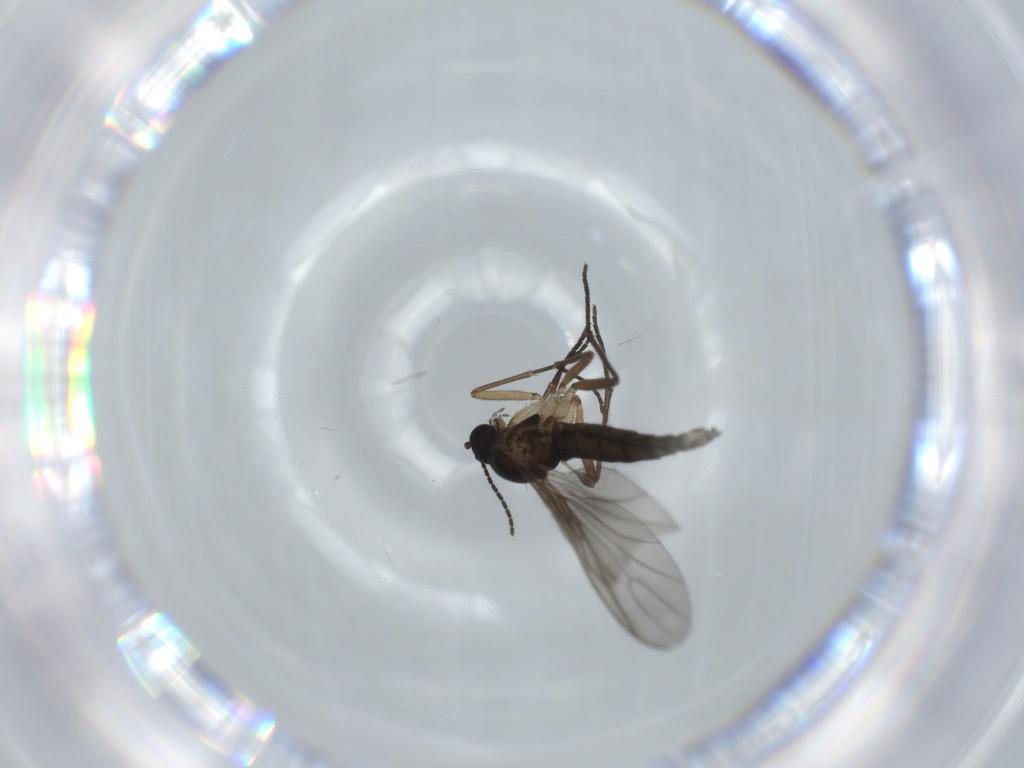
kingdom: Animalia
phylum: Arthropoda
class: Insecta
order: Diptera
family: Sciaridae
